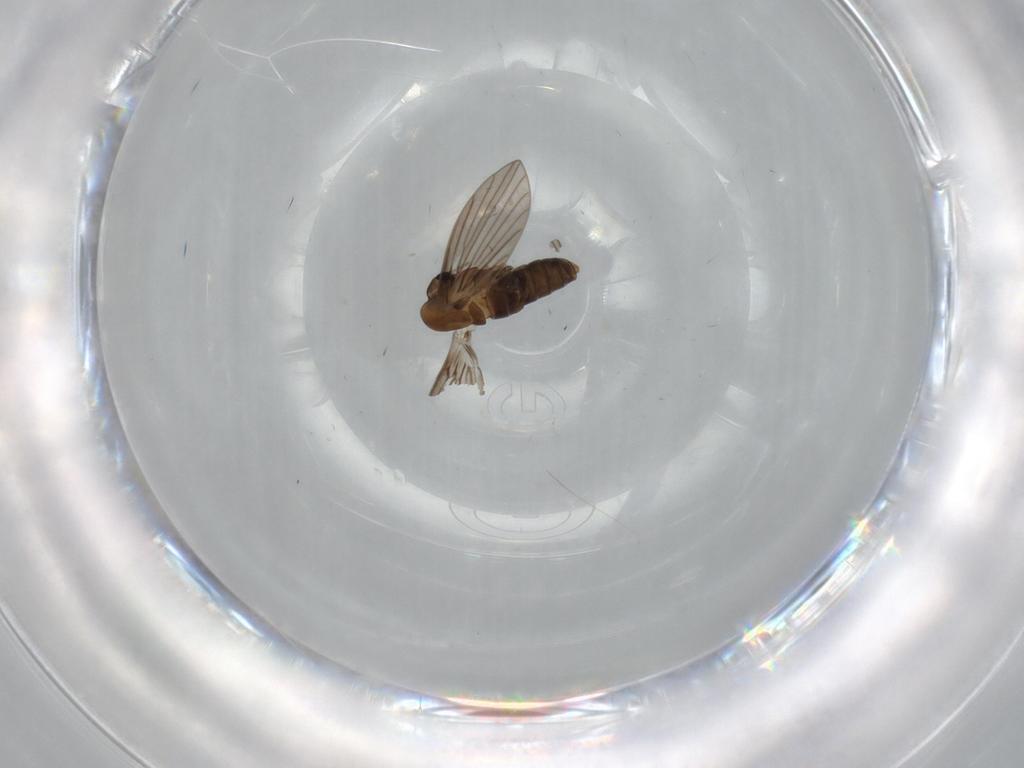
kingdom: Animalia
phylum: Arthropoda
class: Insecta
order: Diptera
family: Psychodidae
